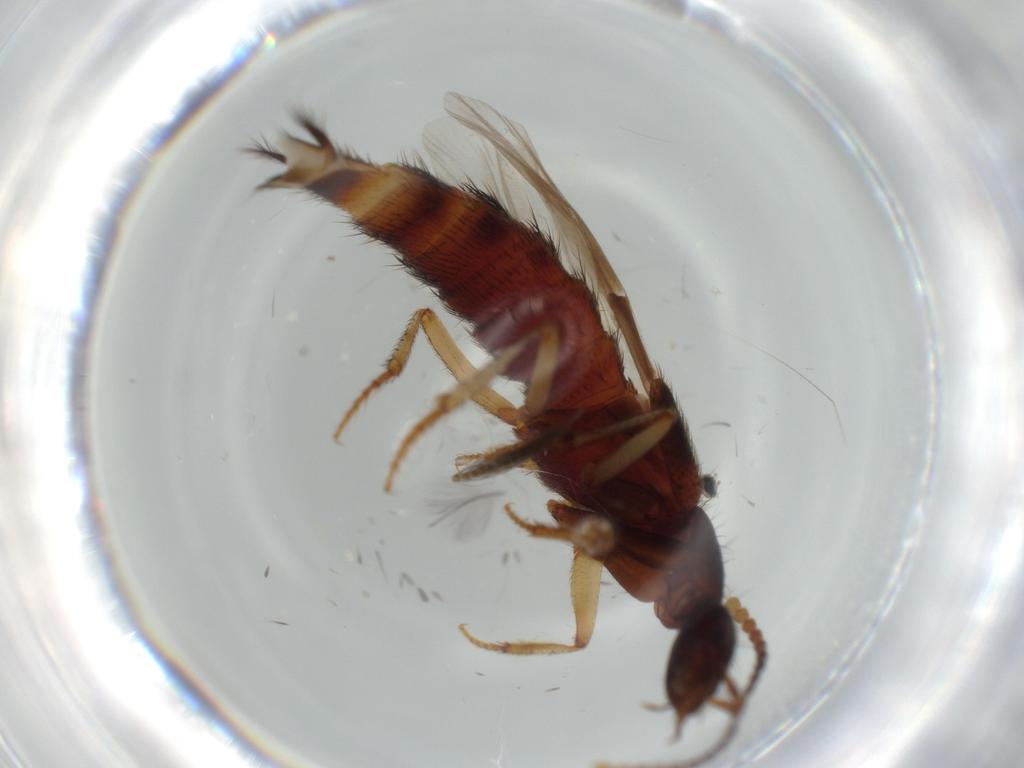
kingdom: Animalia
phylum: Arthropoda
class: Insecta
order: Coleoptera
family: Staphylinidae
